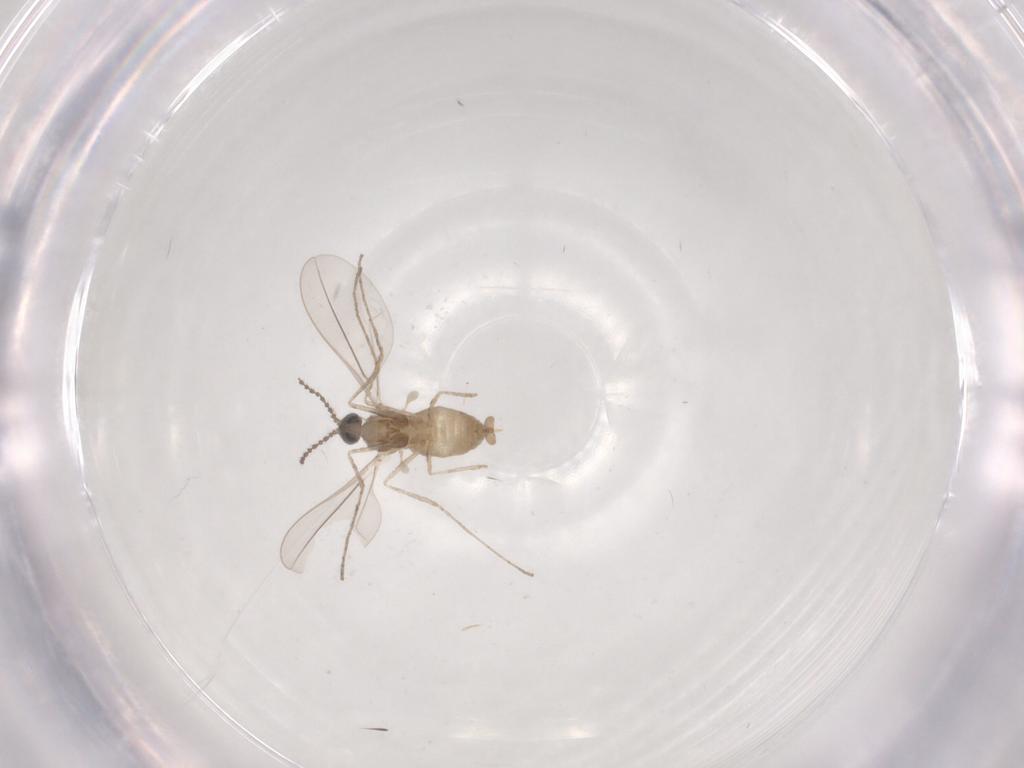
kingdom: Animalia
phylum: Arthropoda
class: Insecta
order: Diptera
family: Cecidomyiidae
